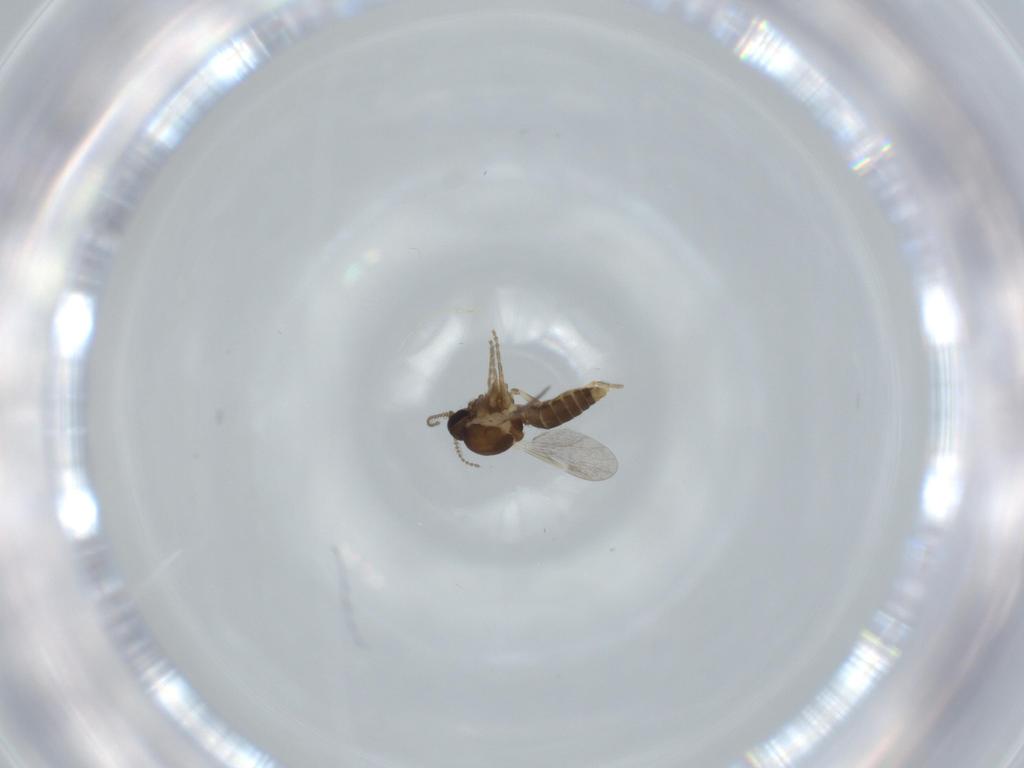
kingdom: Animalia
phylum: Arthropoda
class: Insecta
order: Diptera
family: Ceratopogonidae
